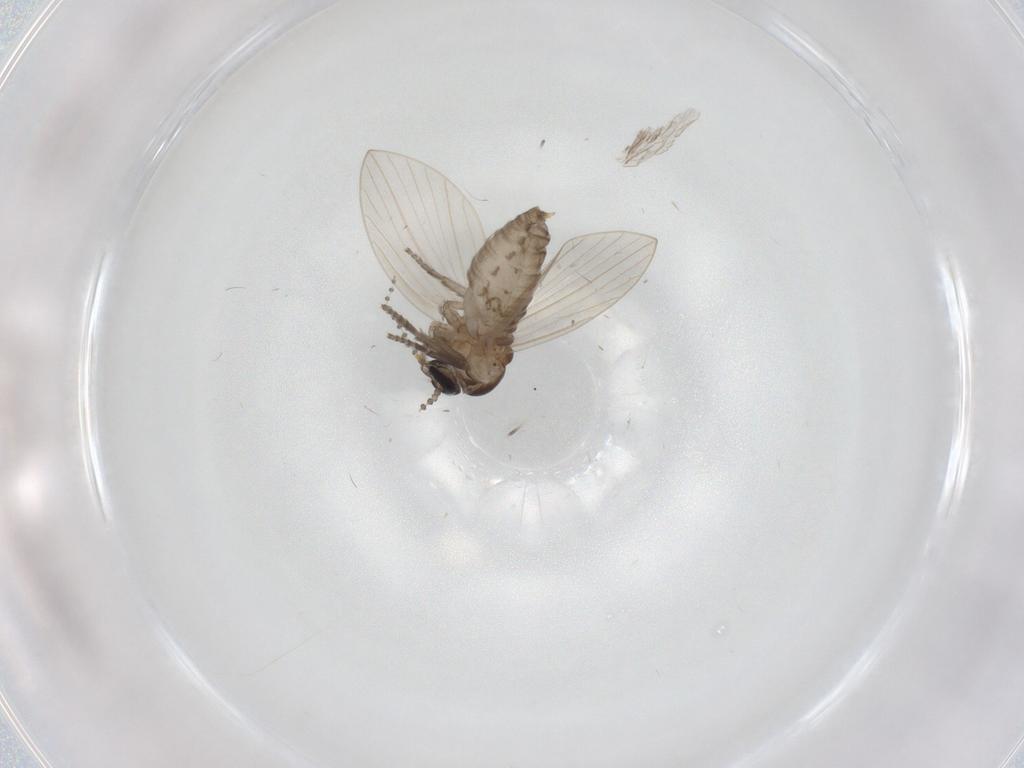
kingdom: Animalia
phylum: Arthropoda
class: Insecta
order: Diptera
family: Psychodidae
